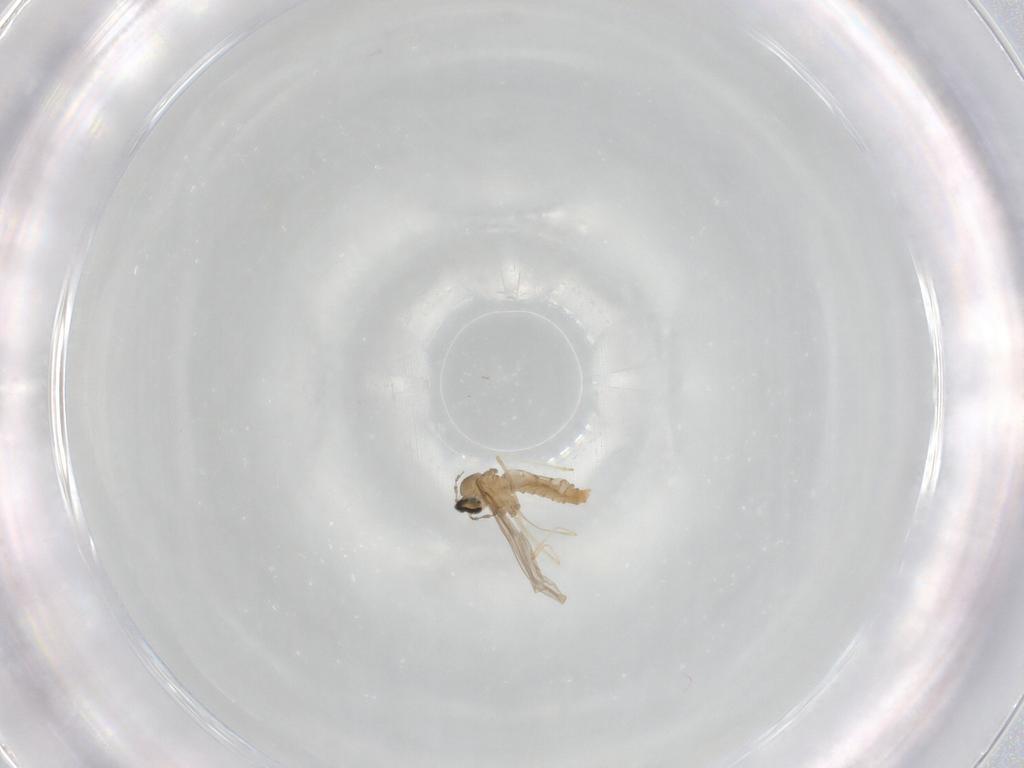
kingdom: Animalia
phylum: Arthropoda
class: Insecta
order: Diptera
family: Cecidomyiidae
